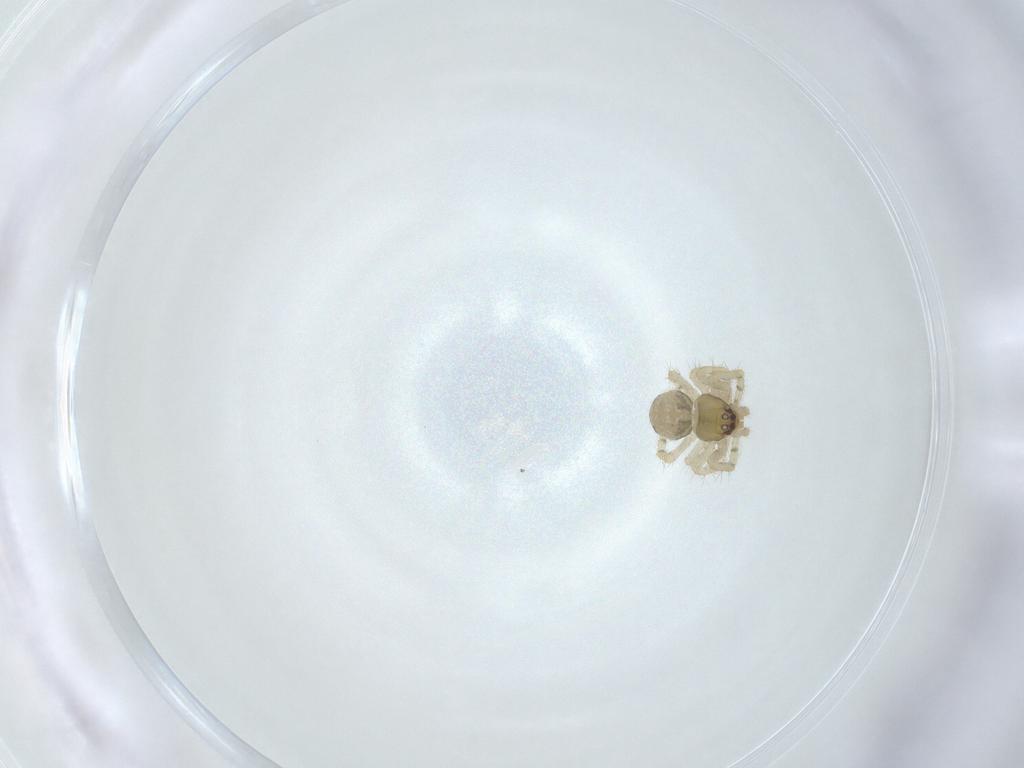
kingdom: Animalia
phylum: Arthropoda
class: Arachnida
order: Araneae
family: Theridiidae
